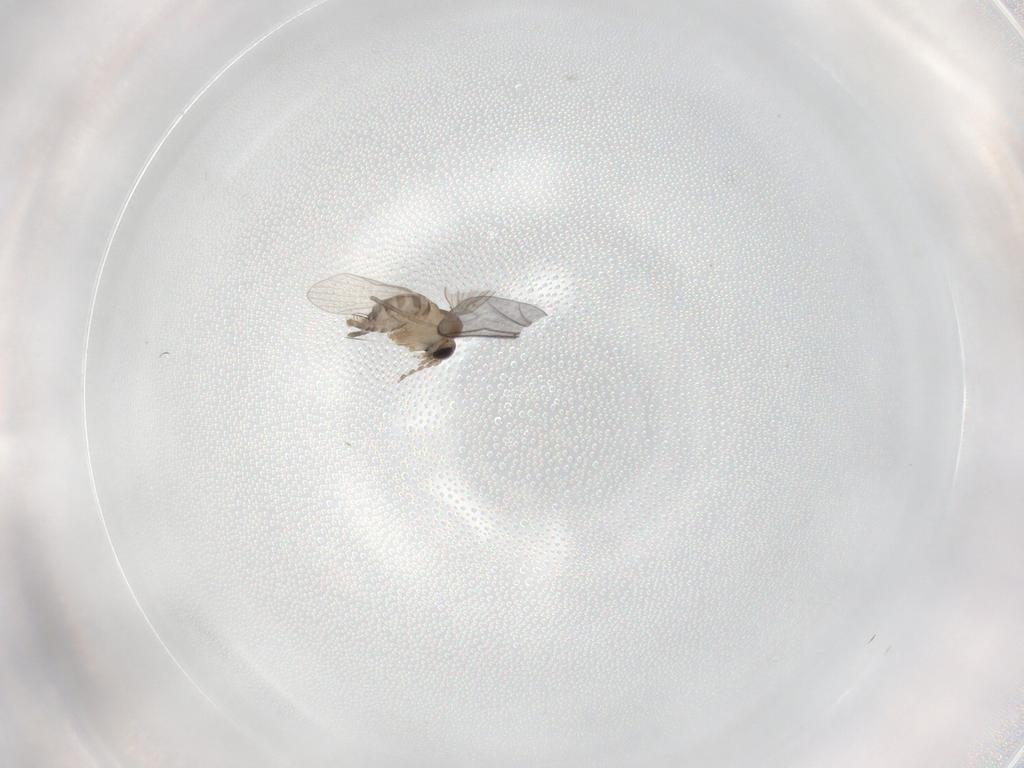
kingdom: Animalia
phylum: Arthropoda
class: Insecta
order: Diptera
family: Psychodidae
